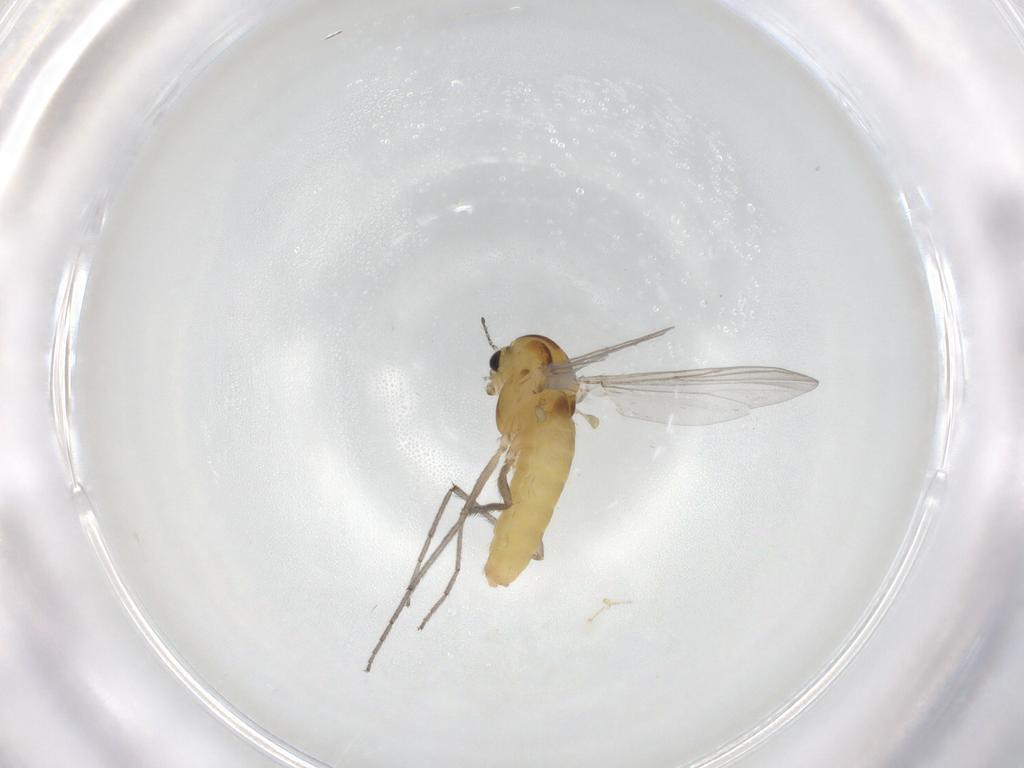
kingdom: Animalia
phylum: Arthropoda
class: Insecta
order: Diptera
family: Chironomidae
